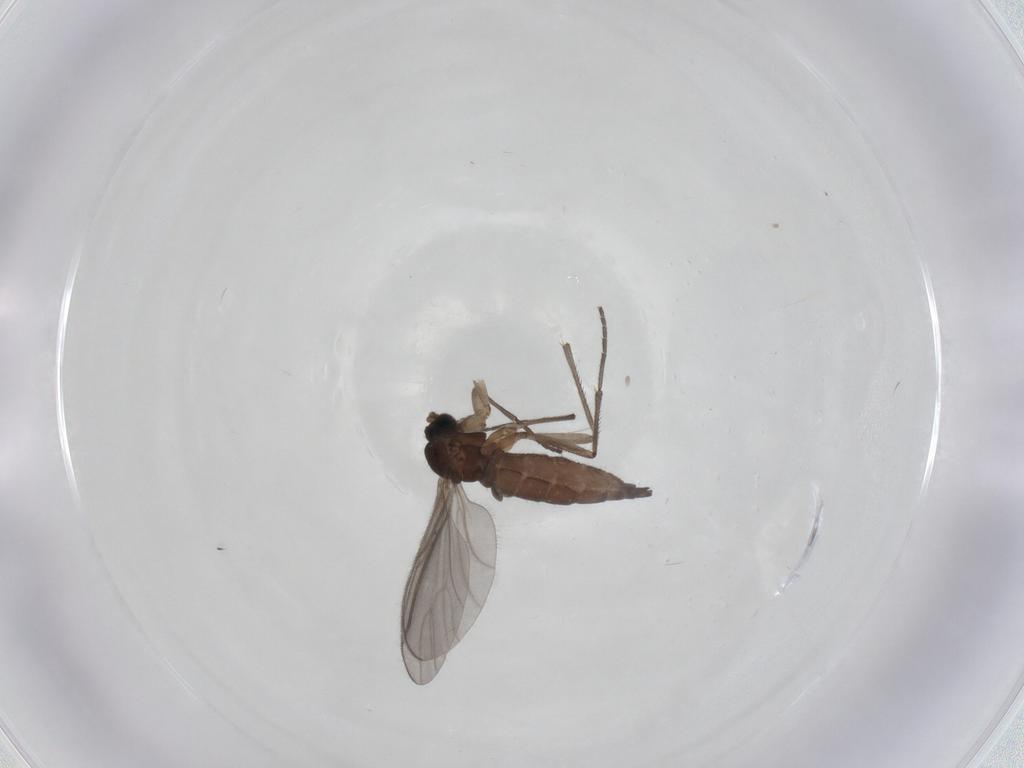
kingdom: Animalia
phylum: Arthropoda
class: Insecta
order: Diptera
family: Sciaridae
